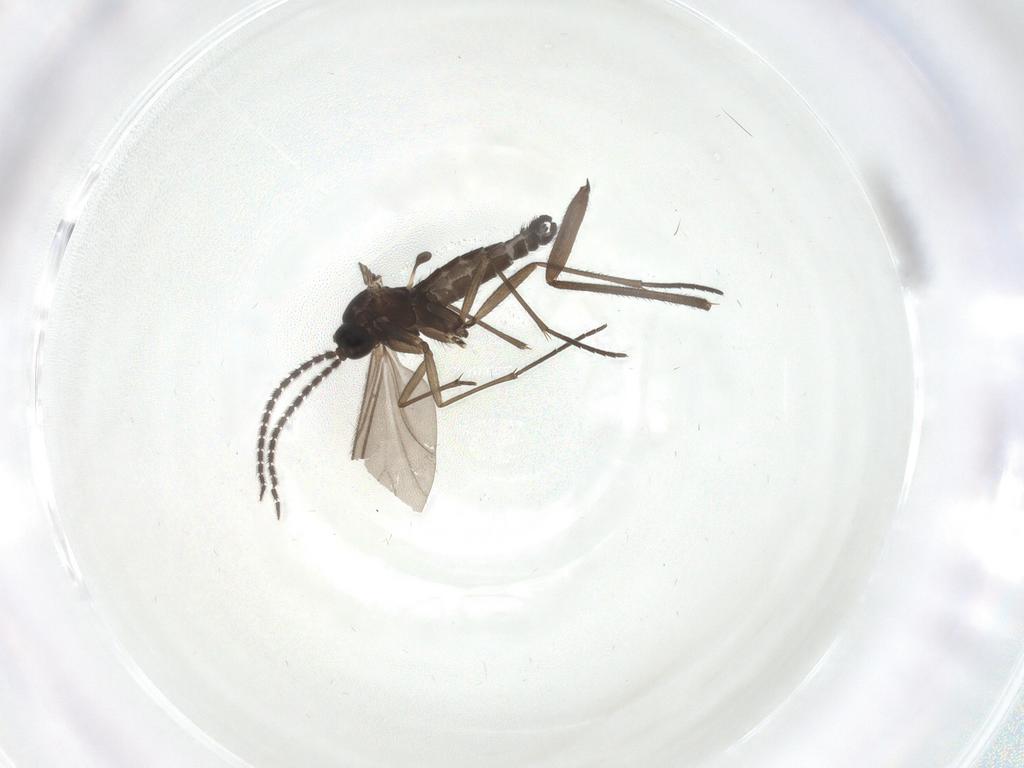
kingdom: Animalia
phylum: Arthropoda
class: Insecta
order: Diptera
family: Sciaridae
